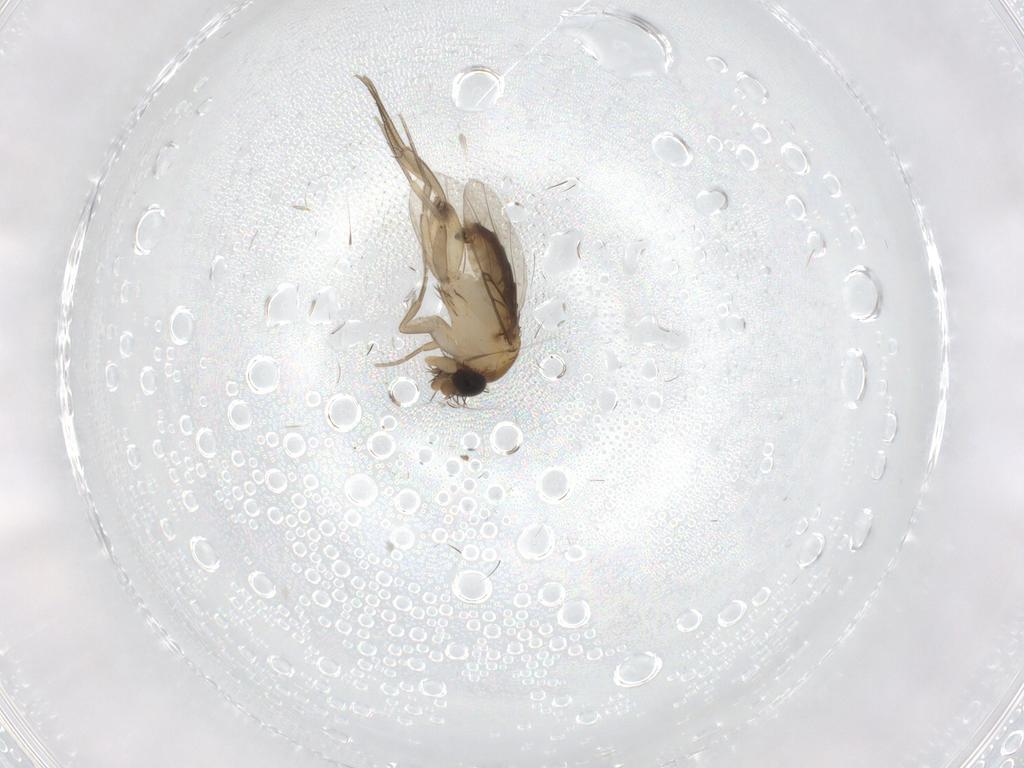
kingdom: Animalia
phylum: Arthropoda
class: Insecta
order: Diptera
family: Phoridae
